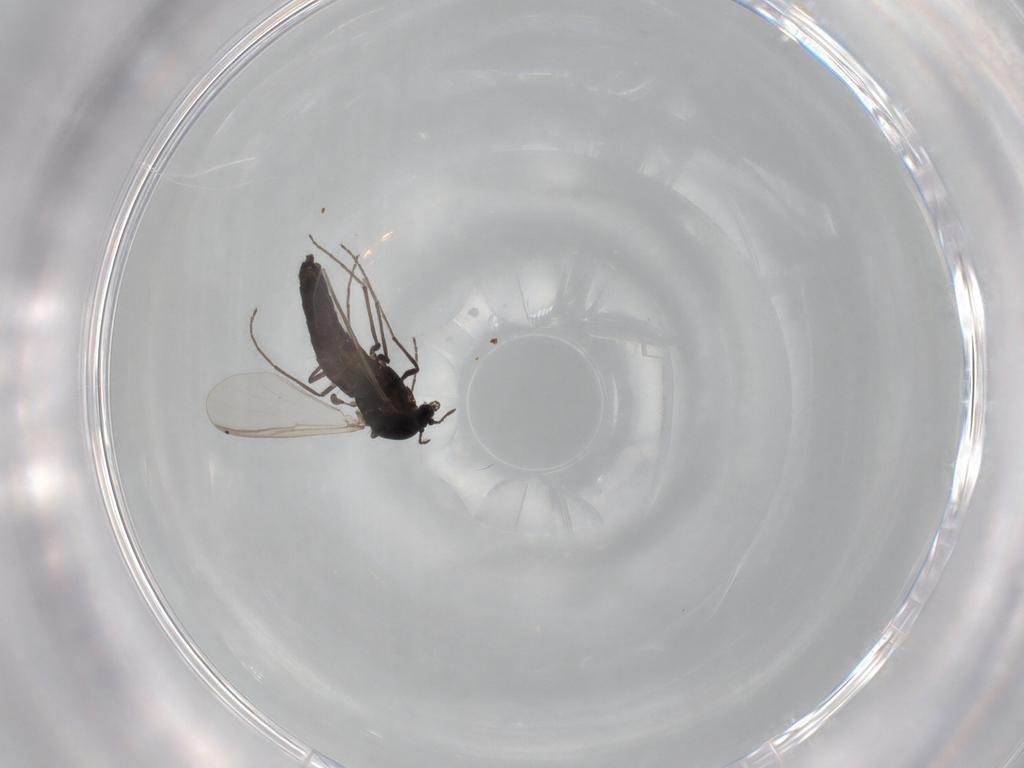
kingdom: Animalia
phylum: Arthropoda
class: Insecta
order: Diptera
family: Chironomidae
